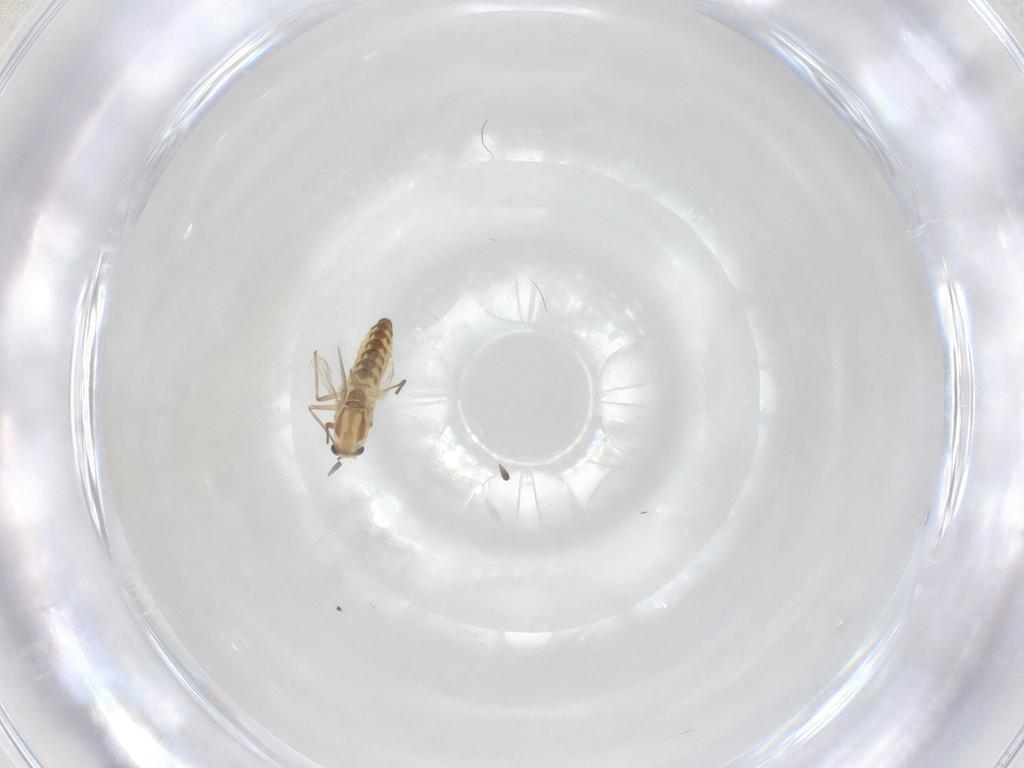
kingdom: Animalia
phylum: Arthropoda
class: Insecta
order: Diptera
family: Chironomidae
